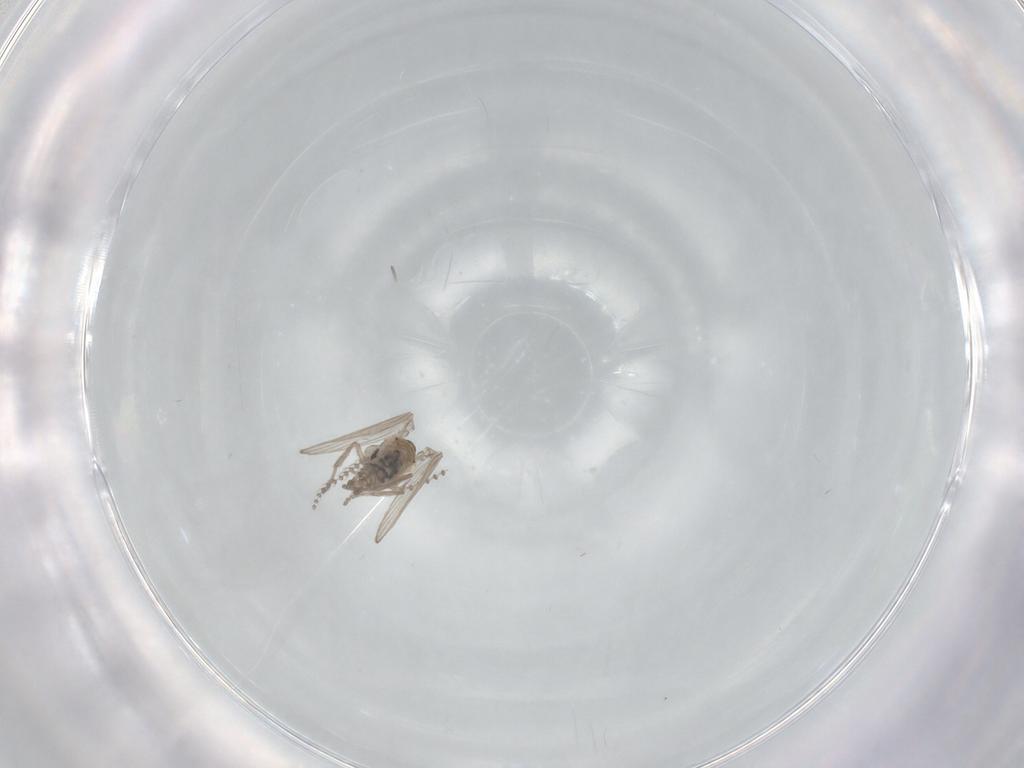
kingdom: Animalia
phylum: Arthropoda
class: Insecta
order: Diptera
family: Psychodidae
